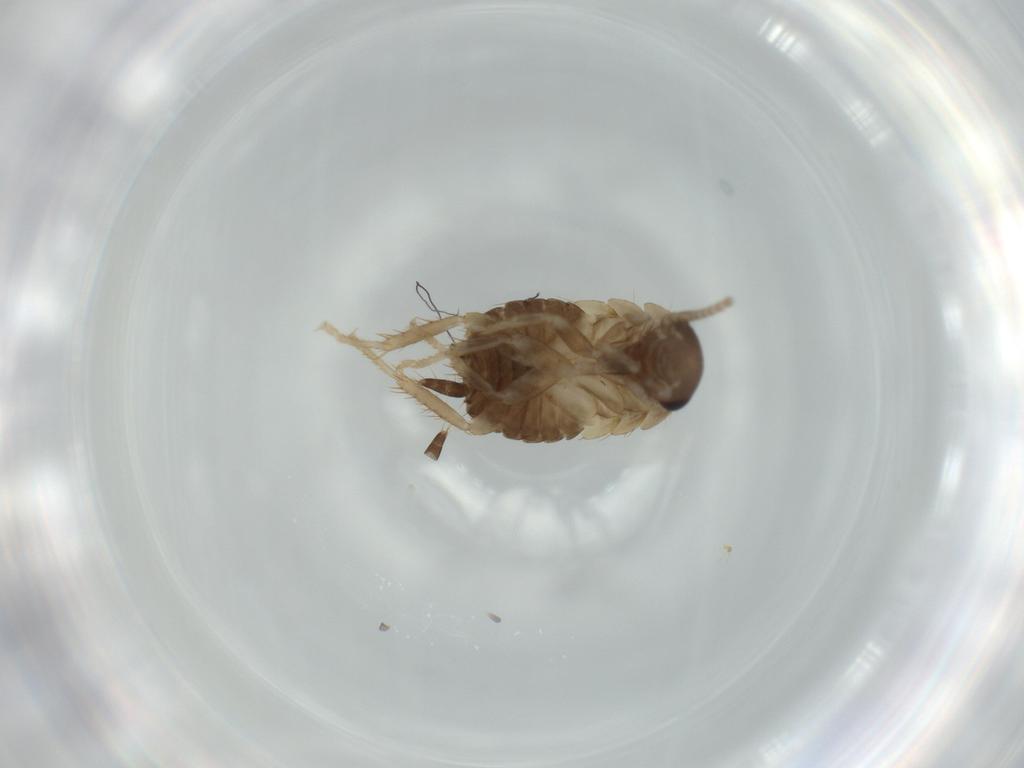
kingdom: Animalia
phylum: Arthropoda
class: Insecta
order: Blattodea
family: Ectobiidae
